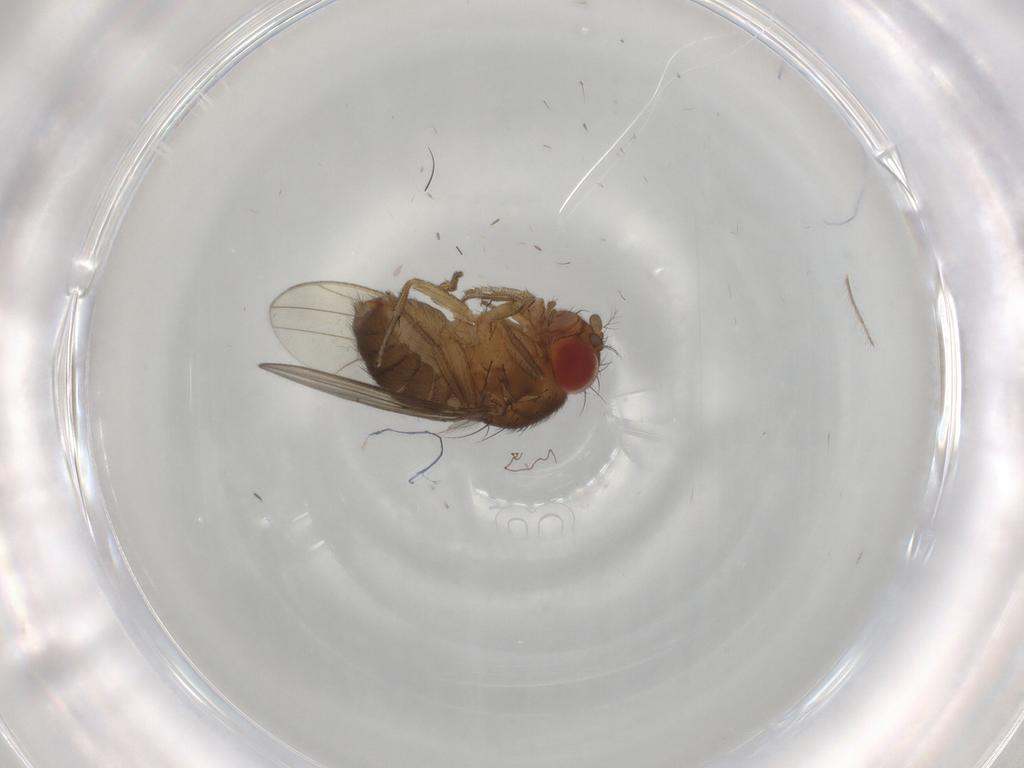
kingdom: Animalia
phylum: Arthropoda
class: Insecta
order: Diptera
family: Drosophilidae
